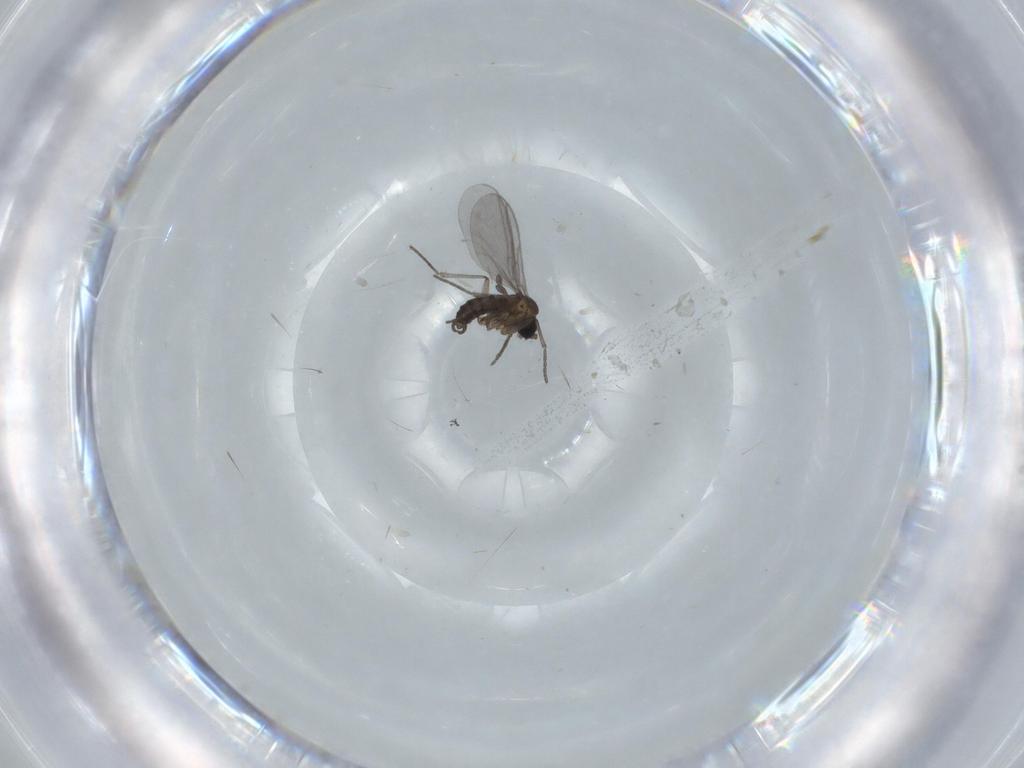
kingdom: Animalia
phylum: Arthropoda
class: Insecta
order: Diptera
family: Sciaridae
